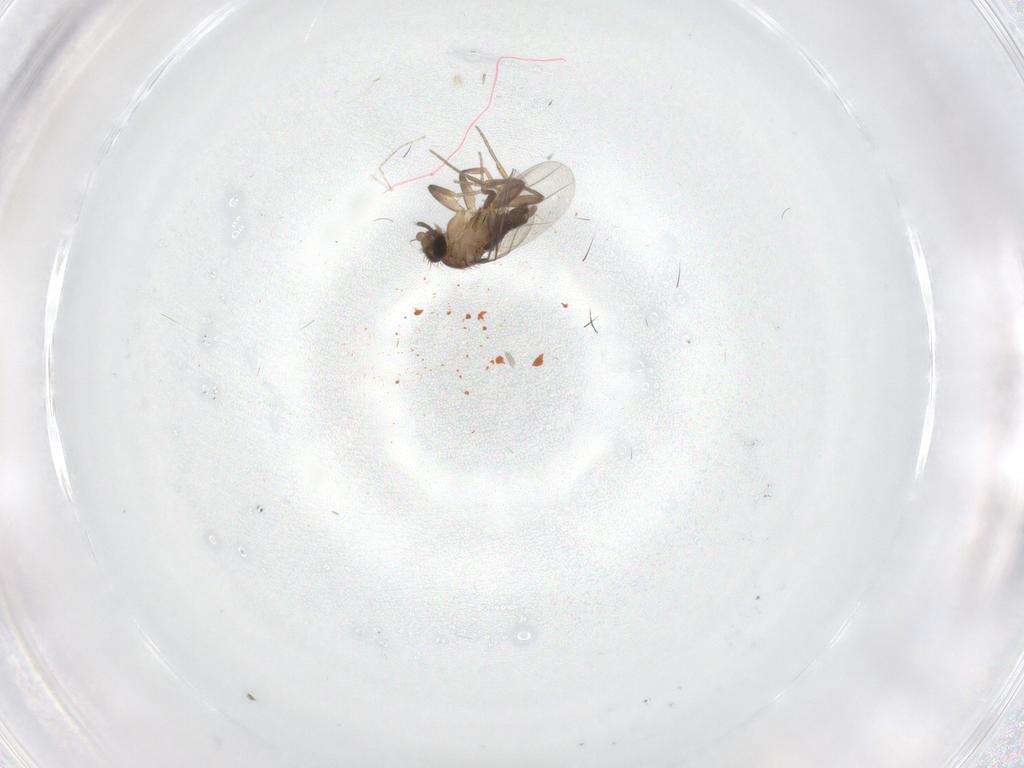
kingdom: Animalia
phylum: Arthropoda
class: Insecta
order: Diptera
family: Phoridae
